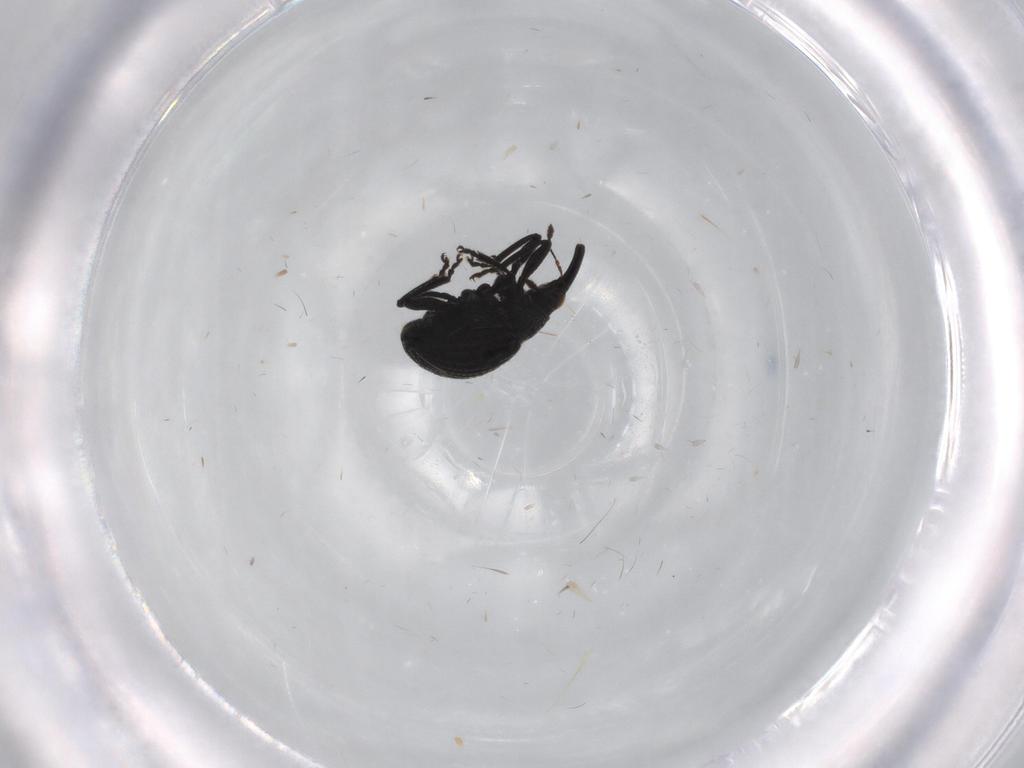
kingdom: Animalia
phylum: Arthropoda
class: Insecta
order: Coleoptera
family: Brentidae
